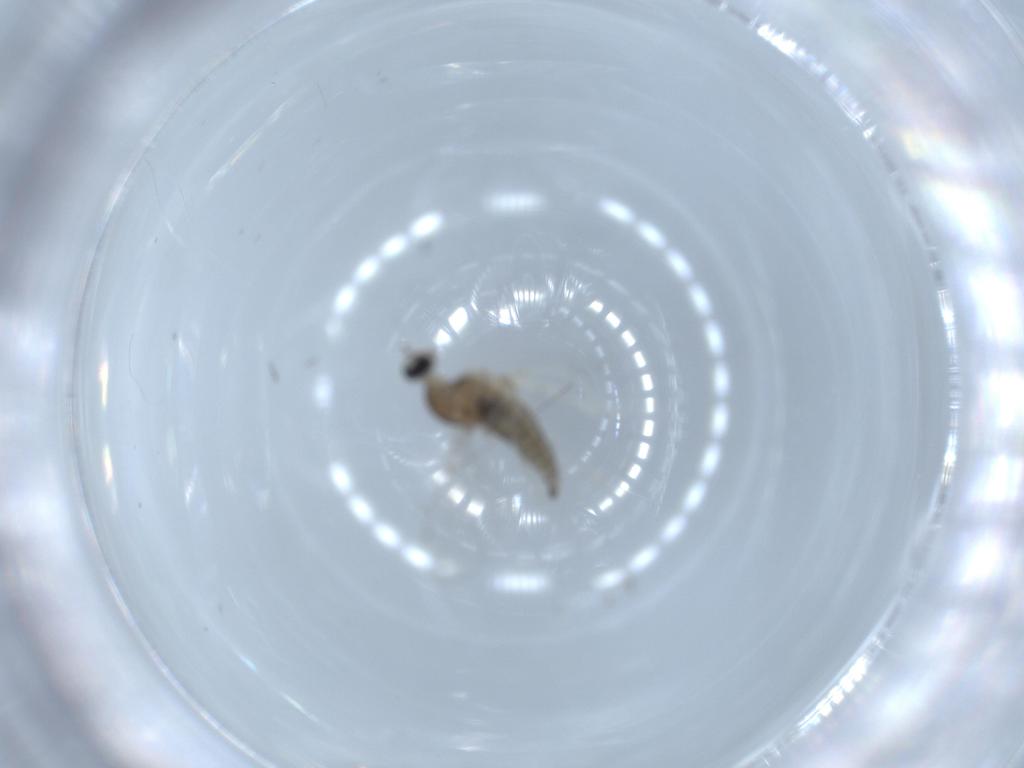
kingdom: Animalia
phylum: Arthropoda
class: Insecta
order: Diptera
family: Cecidomyiidae
